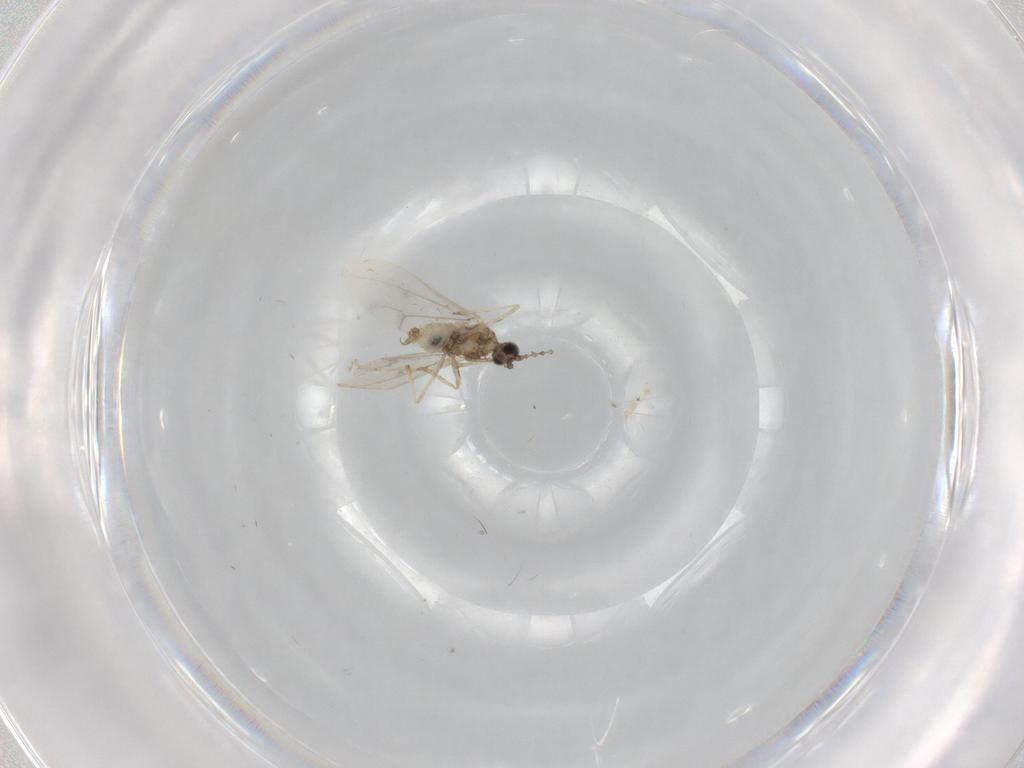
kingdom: Animalia
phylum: Arthropoda
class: Insecta
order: Diptera
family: Cecidomyiidae
